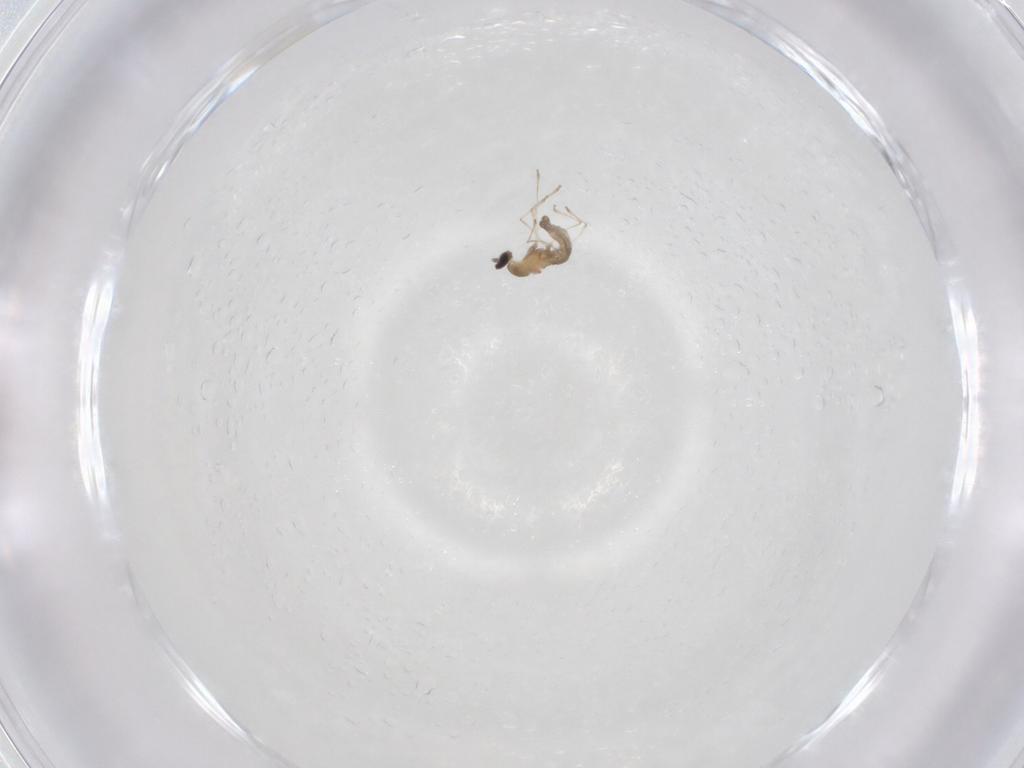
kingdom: Animalia
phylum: Arthropoda
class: Insecta
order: Diptera
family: Cecidomyiidae
